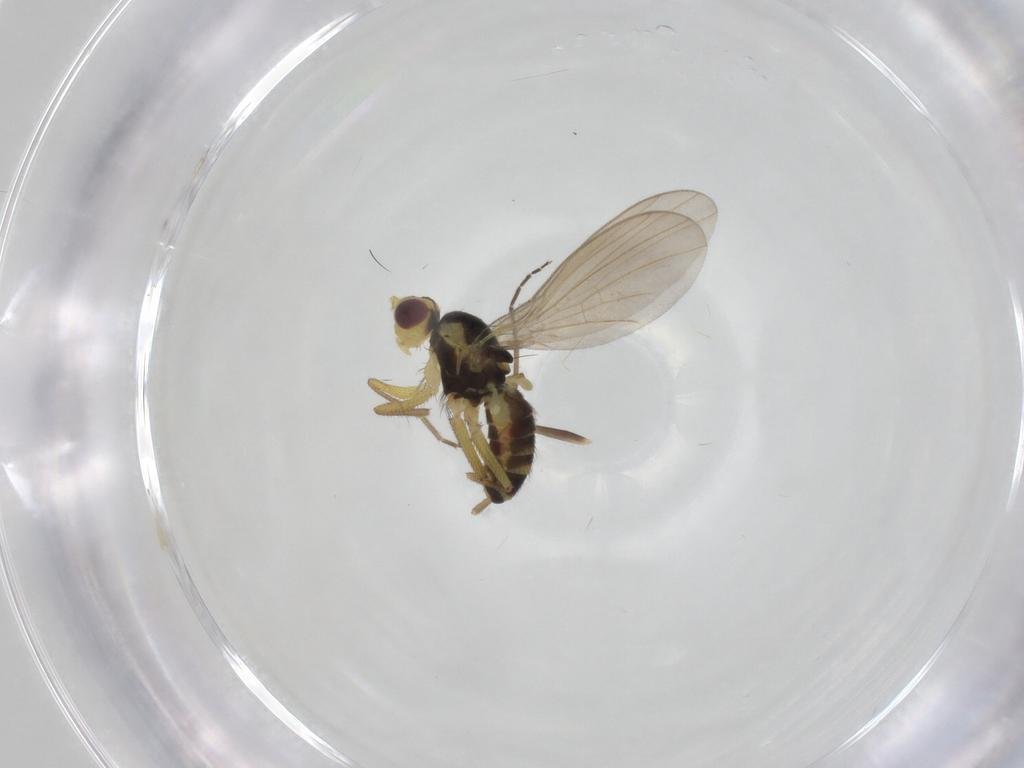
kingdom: Animalia
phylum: Arthropoda
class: Insecta
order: Diptera
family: Agromyzidae
